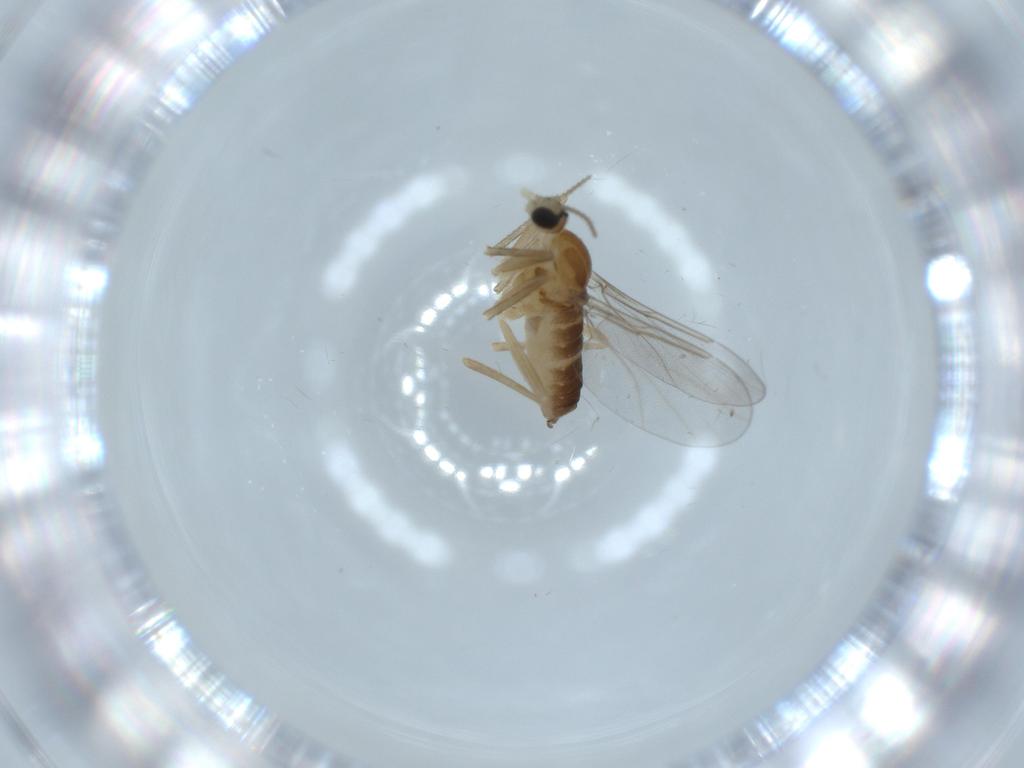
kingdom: Animalia
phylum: Arthropoda
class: Insecta
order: Diptera
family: Cecidomyiidae
